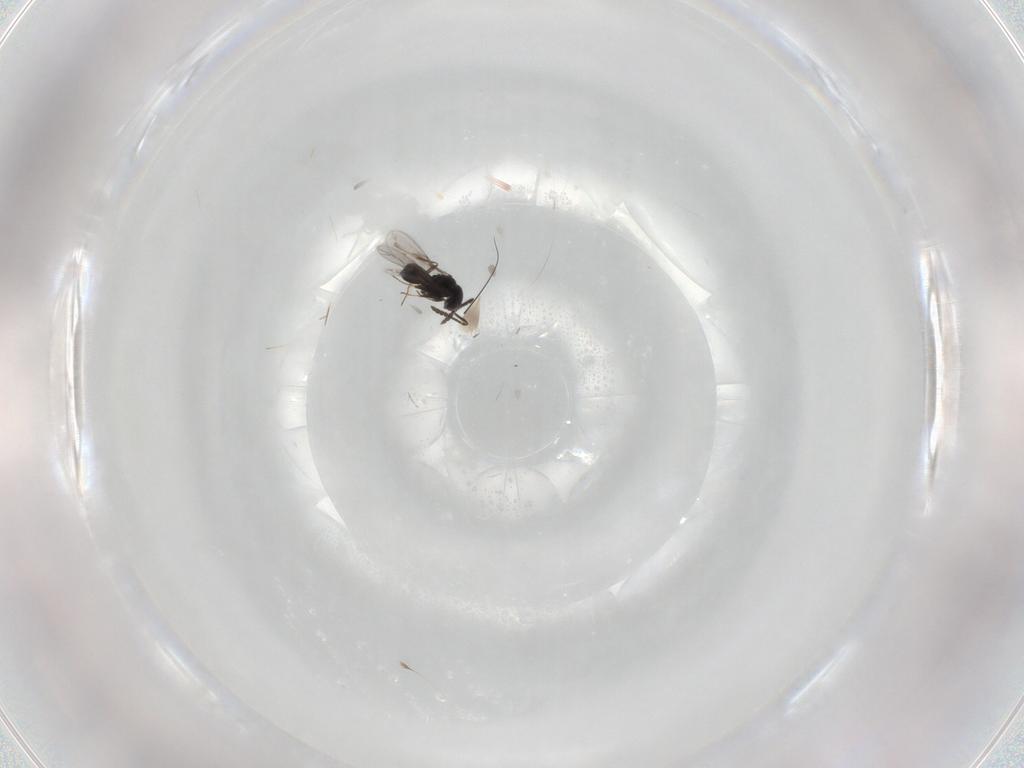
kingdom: Animalia
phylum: Arthropoda
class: Insecta
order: Hymenoptera
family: Scelionidae
